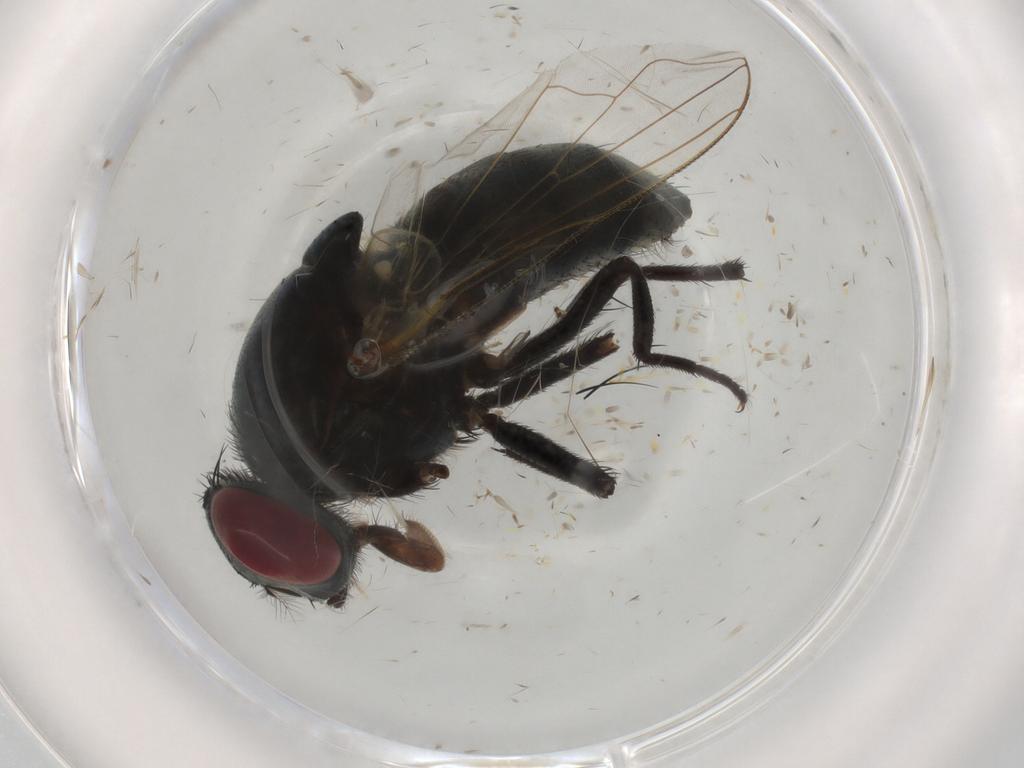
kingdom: Animalia
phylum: Arthropoda
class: Insecta
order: Diptera
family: Muscidae
